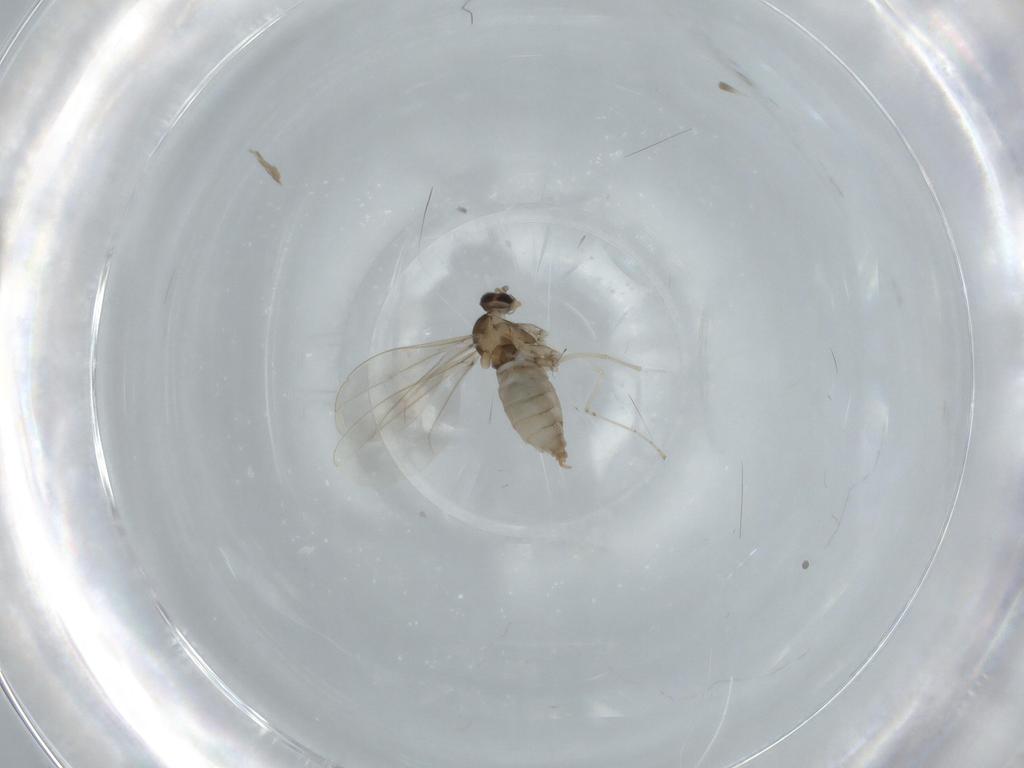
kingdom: Animalia
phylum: Arthropoda
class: Insecta
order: Diptera
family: Cecidomyiidae
